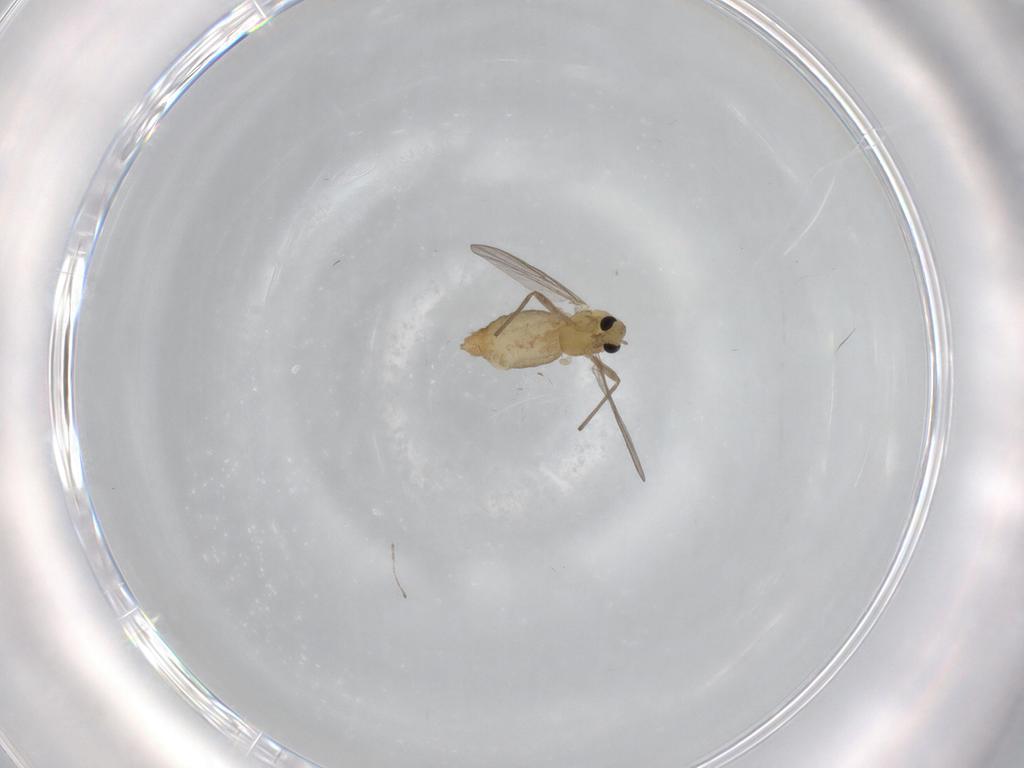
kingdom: Animalia
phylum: Arthropoda
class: Insecta
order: Diptera
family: Chironomidae
